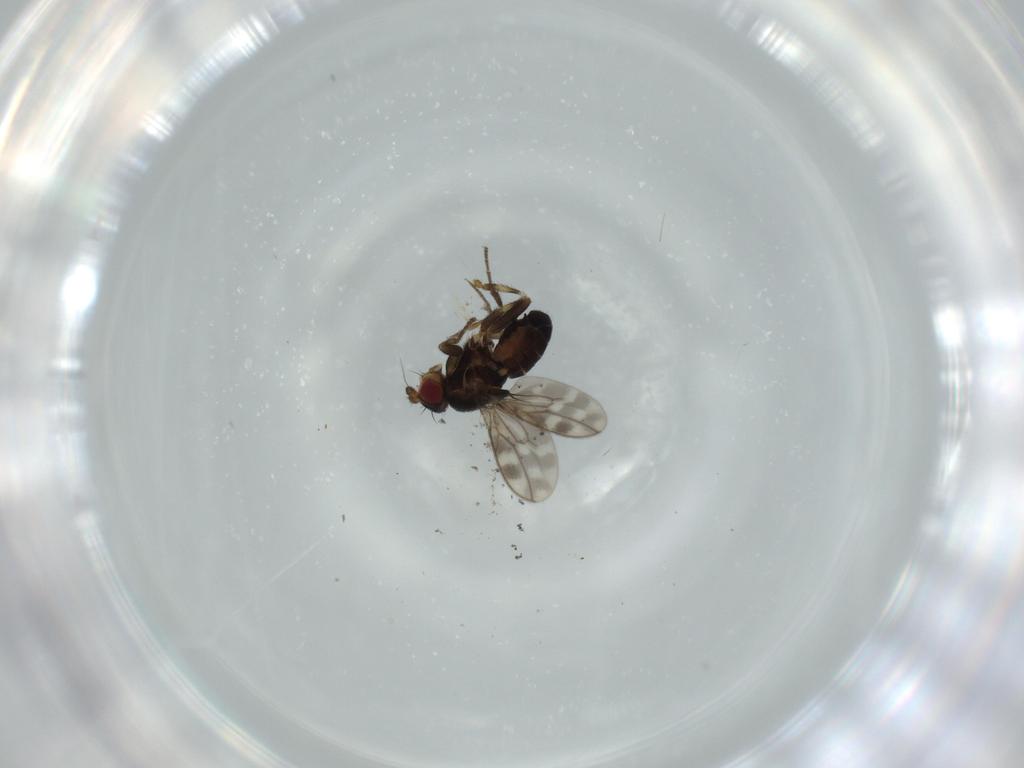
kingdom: Animalia
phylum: Arthropoda
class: Insecta
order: Diptera
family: Sphaeroceridae
